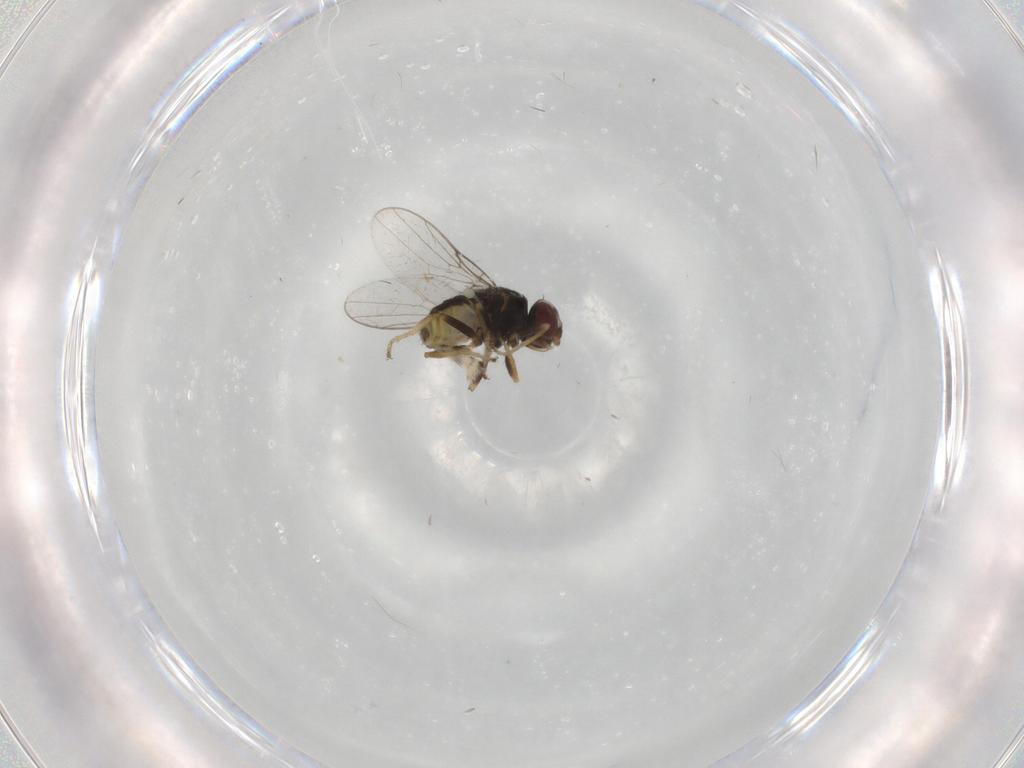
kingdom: Animalia
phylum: Arthropoda
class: Insecta
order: Diptera
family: Chloropidae
